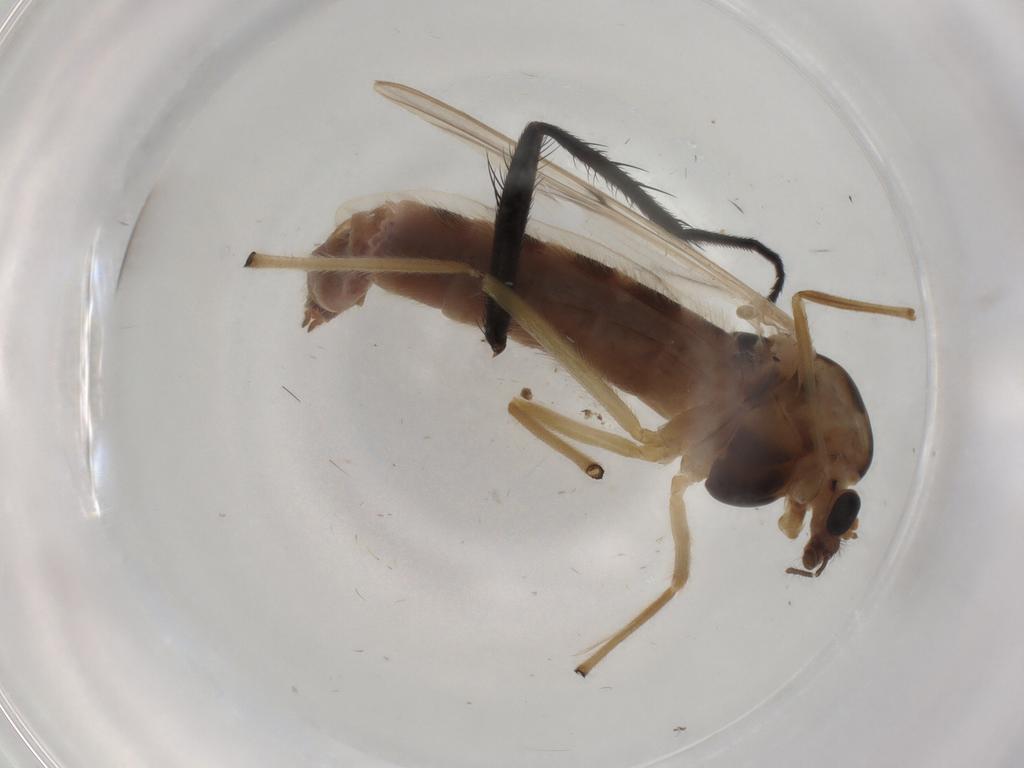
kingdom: Animalia
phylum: Arthropoda
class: Insecta
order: Diptera
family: Chironomidae
